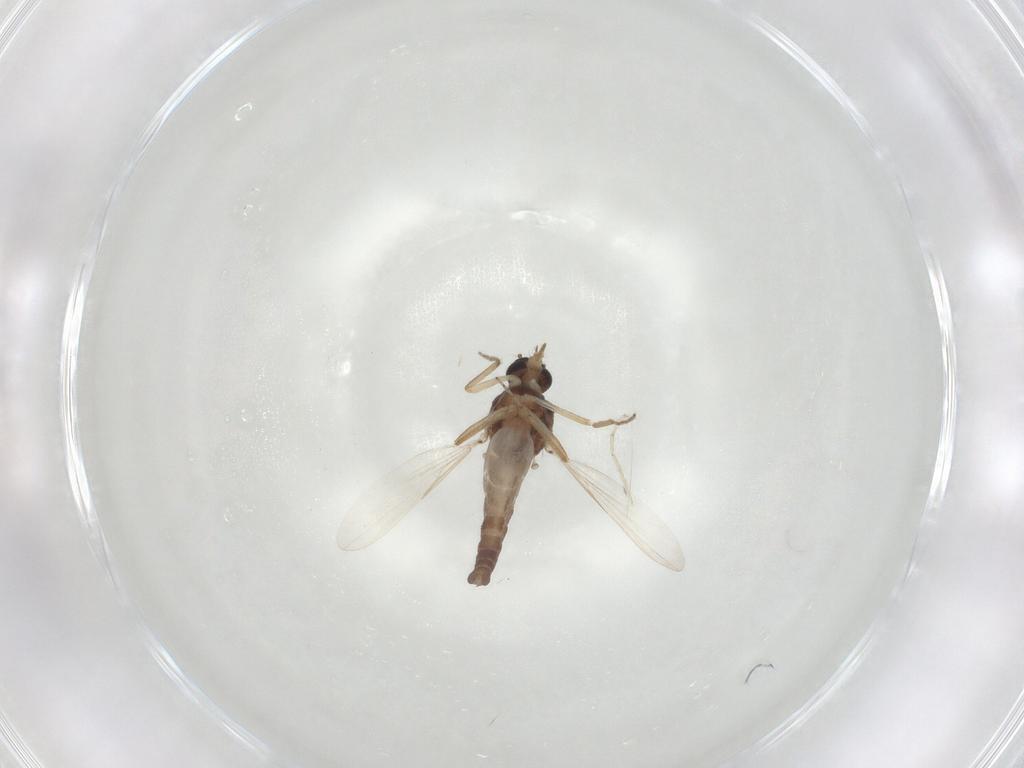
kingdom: Animalia
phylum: Arthropoda
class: Insecta
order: Diptera
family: Ceratopogonidae
